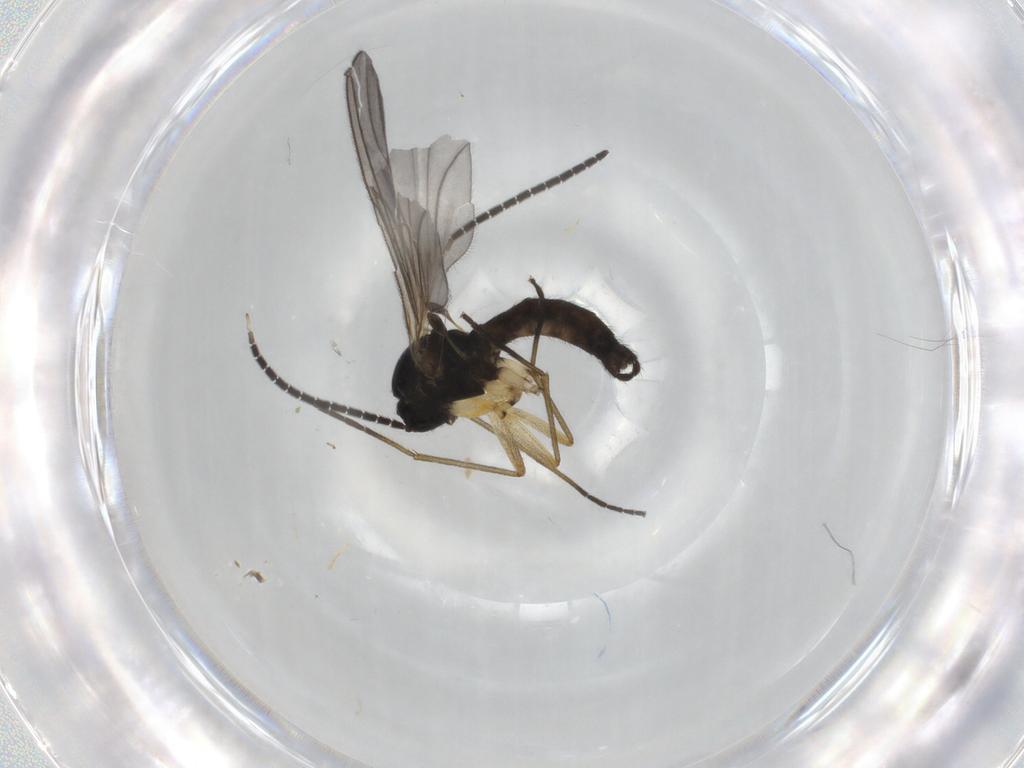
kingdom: Animalia
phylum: Arthropoda
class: Insecta
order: Diptera
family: Sciaridae
